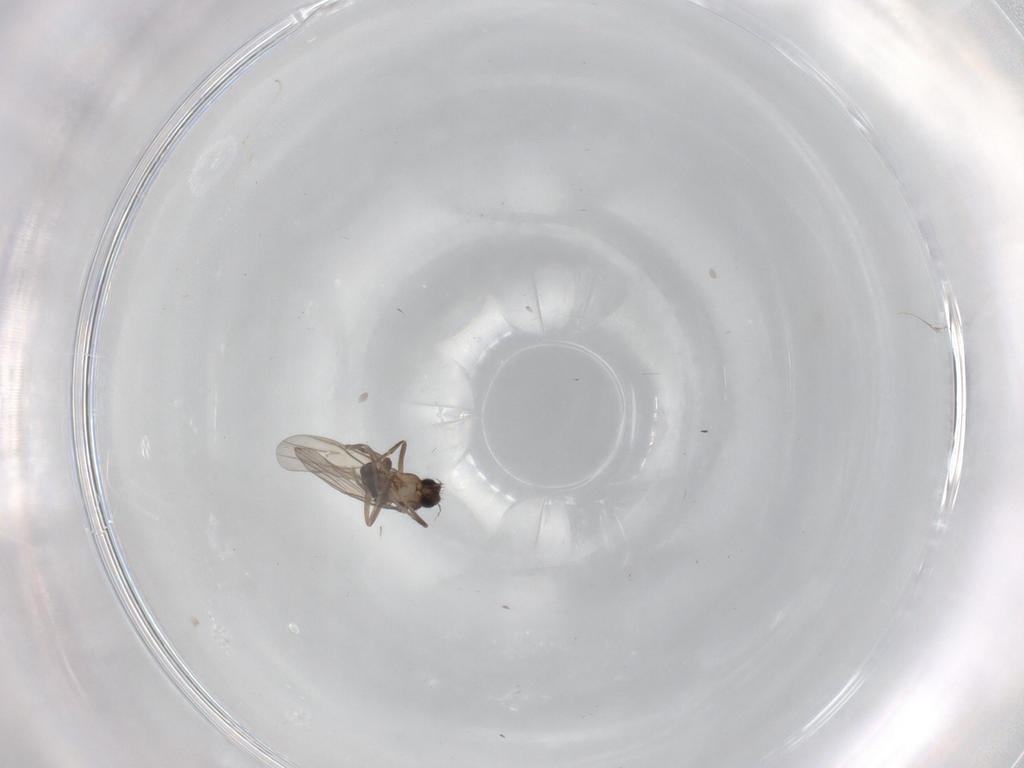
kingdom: Animalia
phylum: Arthropoda
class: Insecta
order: Diptera
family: Phoridae
